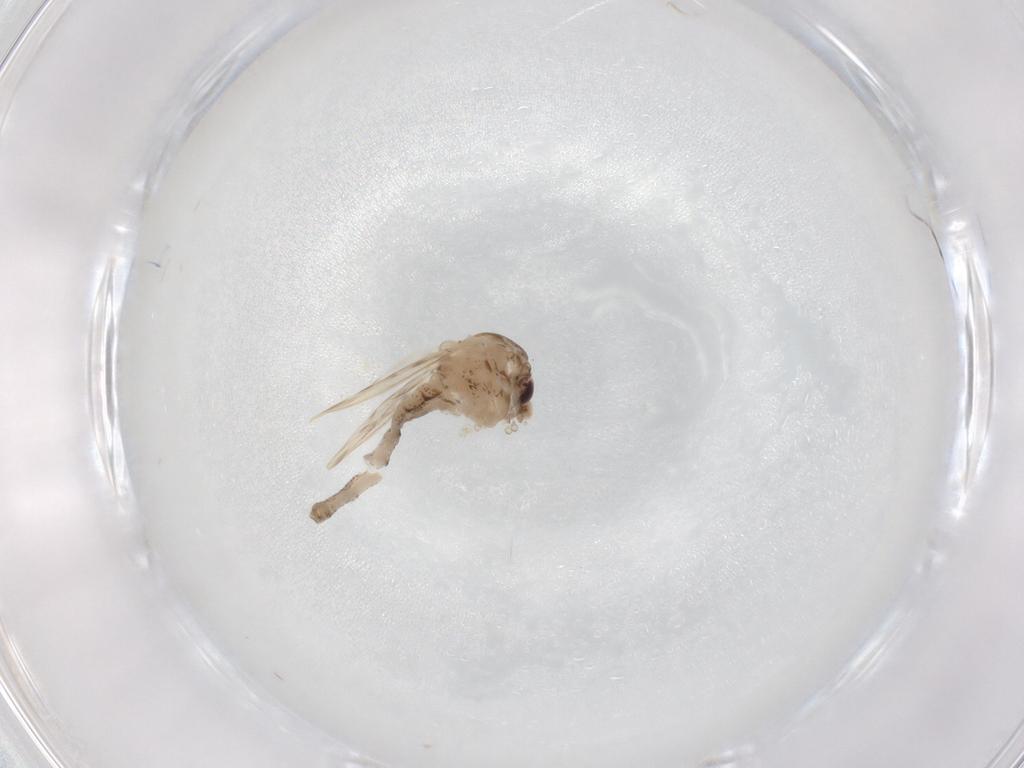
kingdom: Animalia
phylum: Arthropoda
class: Insecta
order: Diptera
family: Chaoboridae
